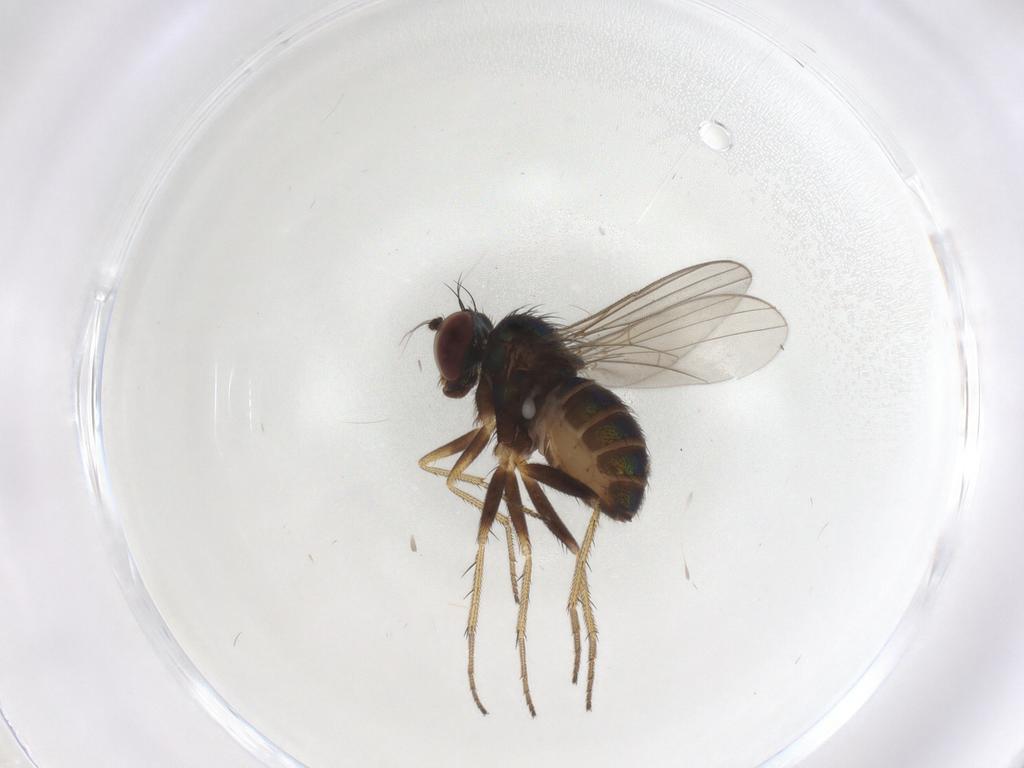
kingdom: Animalia
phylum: Arthropoda
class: Insecta
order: Diptera
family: Dolichopodidae
